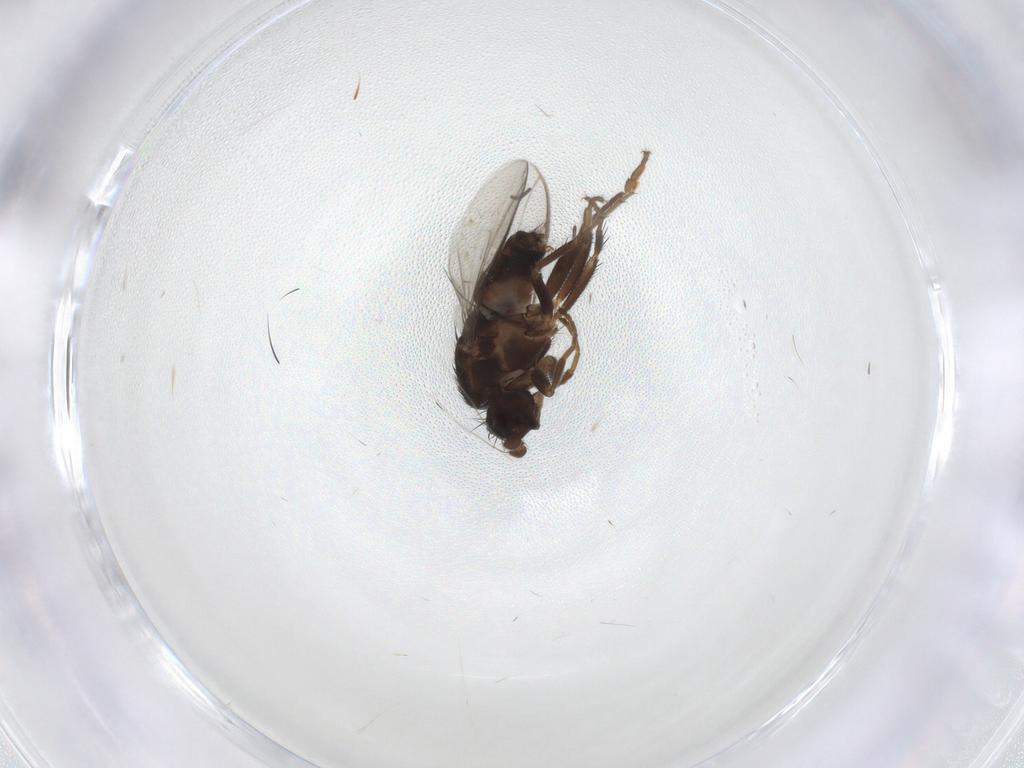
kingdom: Animalia
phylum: Arthropoda
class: Insecta
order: Diptera
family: Sphaeroceridae
